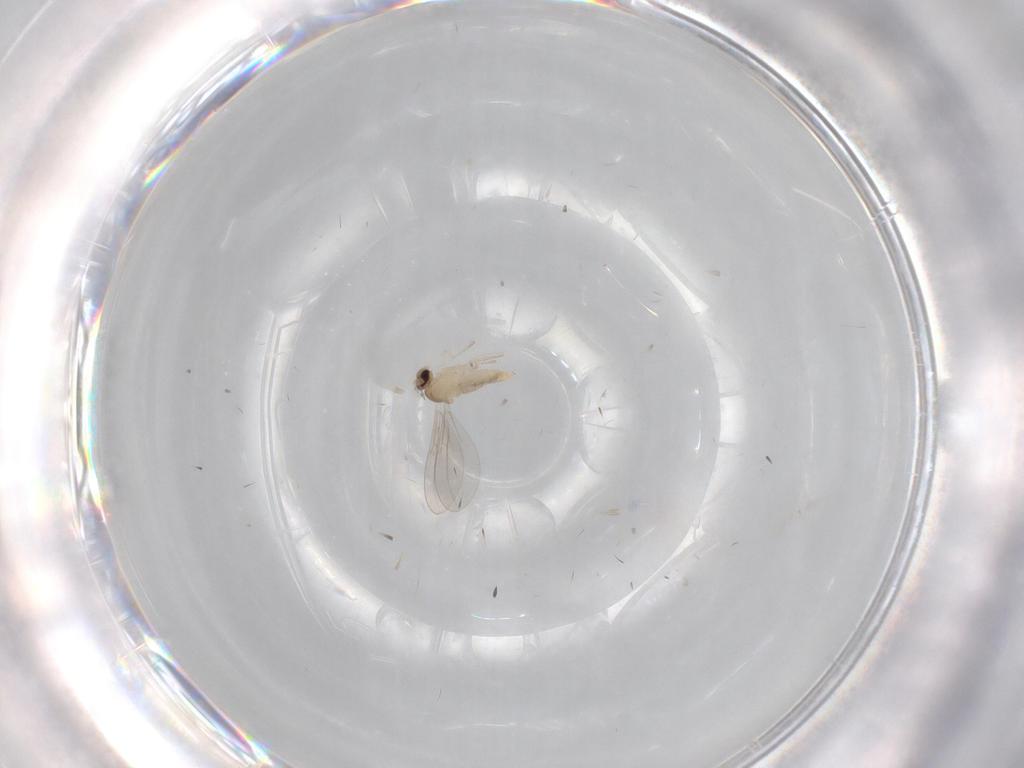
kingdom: Animalia
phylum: Arthropoda
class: Insecta
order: Diptera
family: Cecidomyiidae
